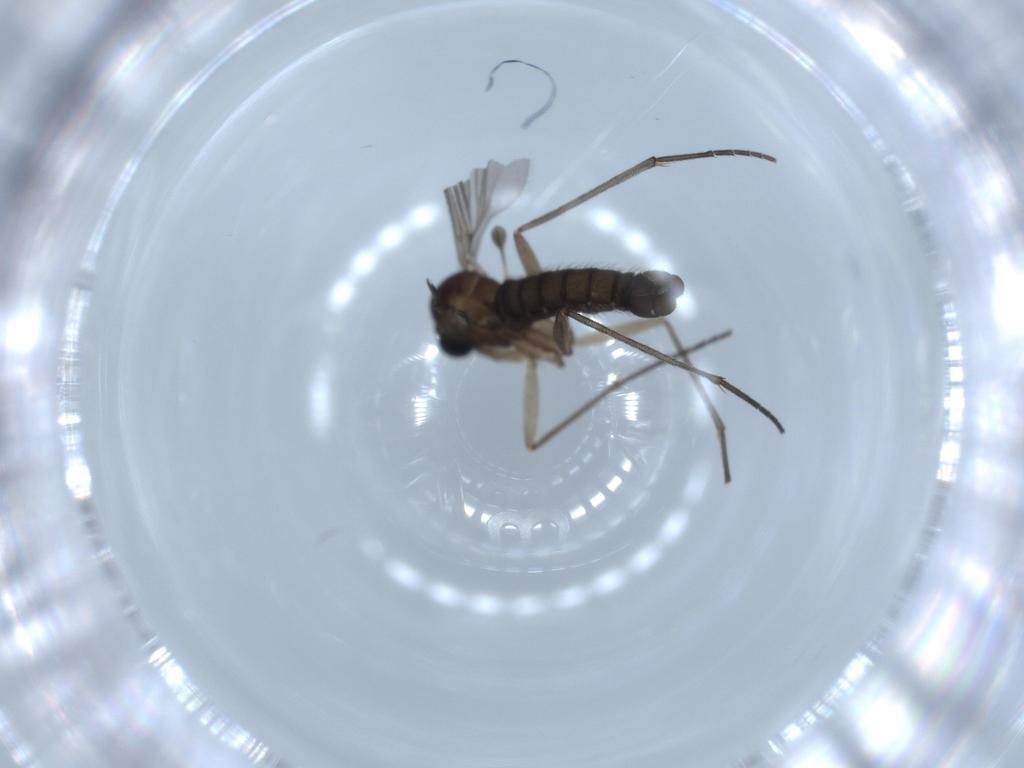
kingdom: Animalia
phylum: Arthropoda
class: Insecta
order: Diptera
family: Sciaridae
